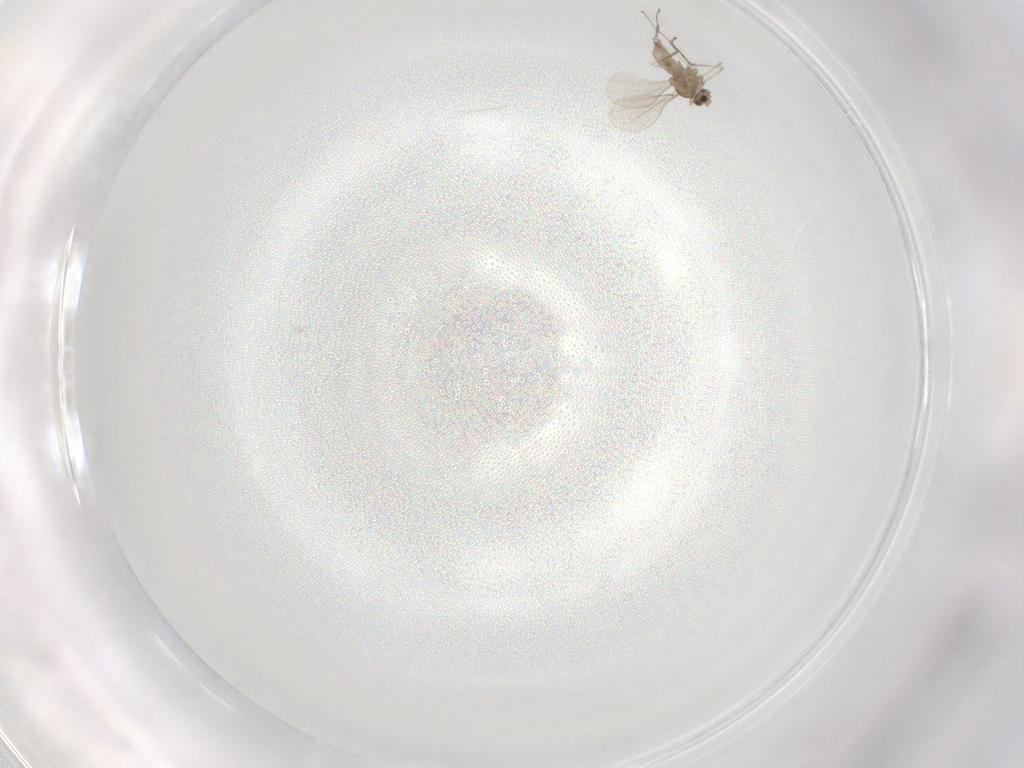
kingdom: Animalia
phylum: Arthropoda
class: Insecta
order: Diptera
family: Cecidomyiidae
